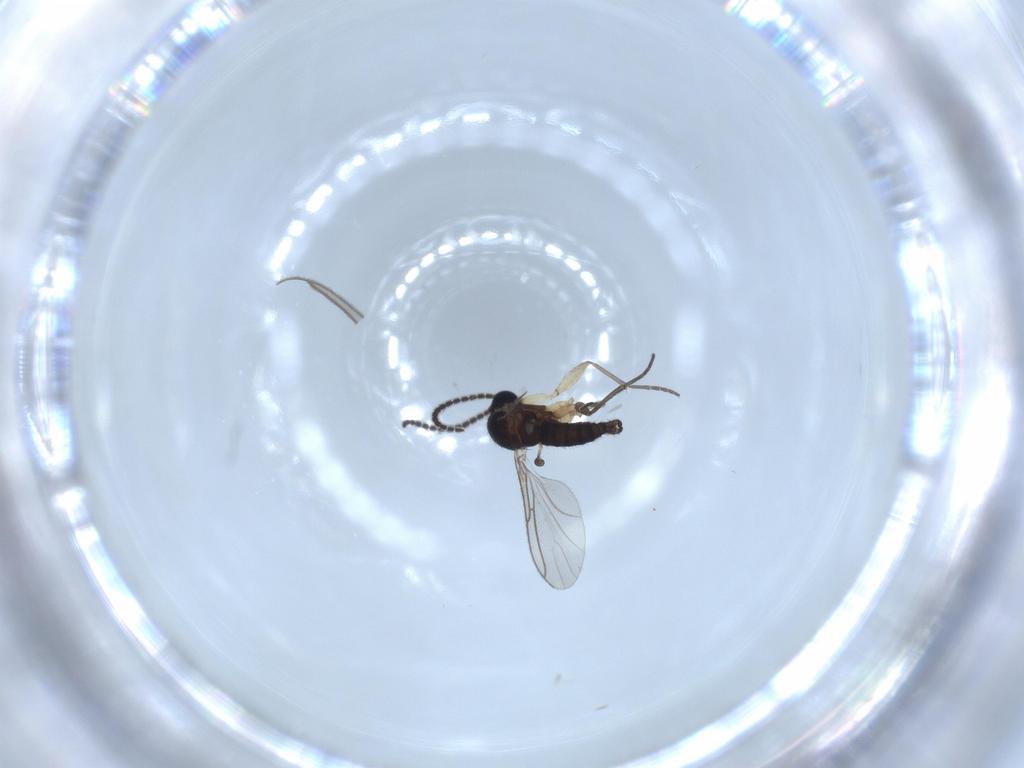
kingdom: Animalia
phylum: Arthropoda
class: Insecta
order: Diptera
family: Sciaridae
